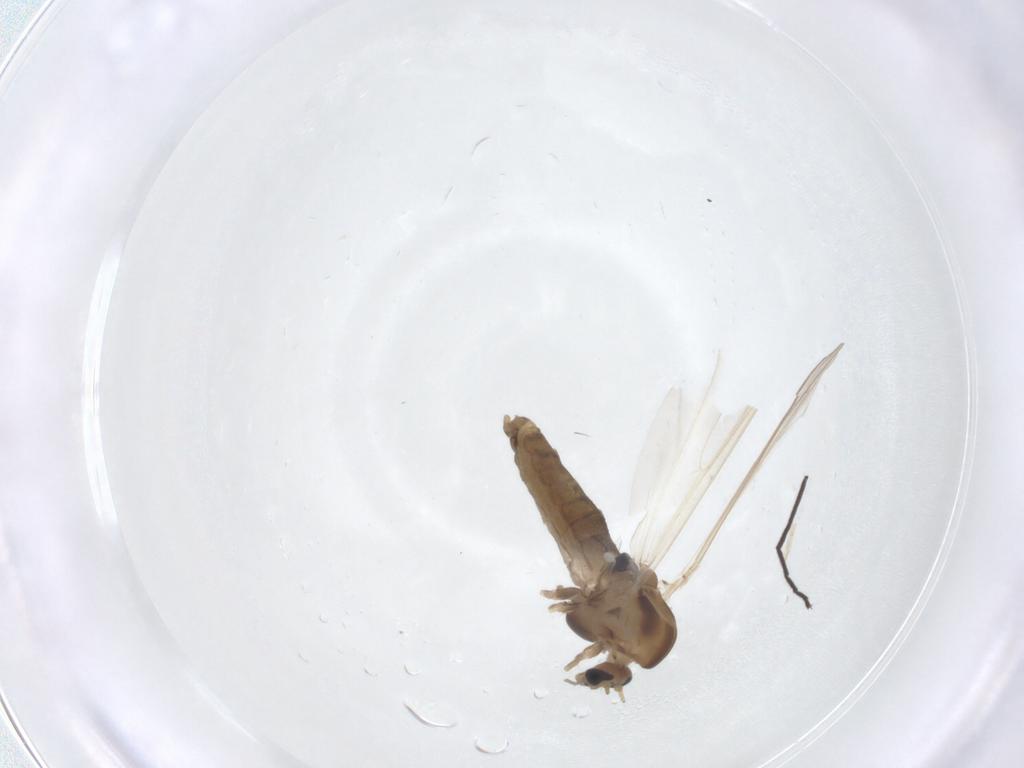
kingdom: Animalia
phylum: Arthropoda
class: Insecta
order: Diptera
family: Chironomidae
